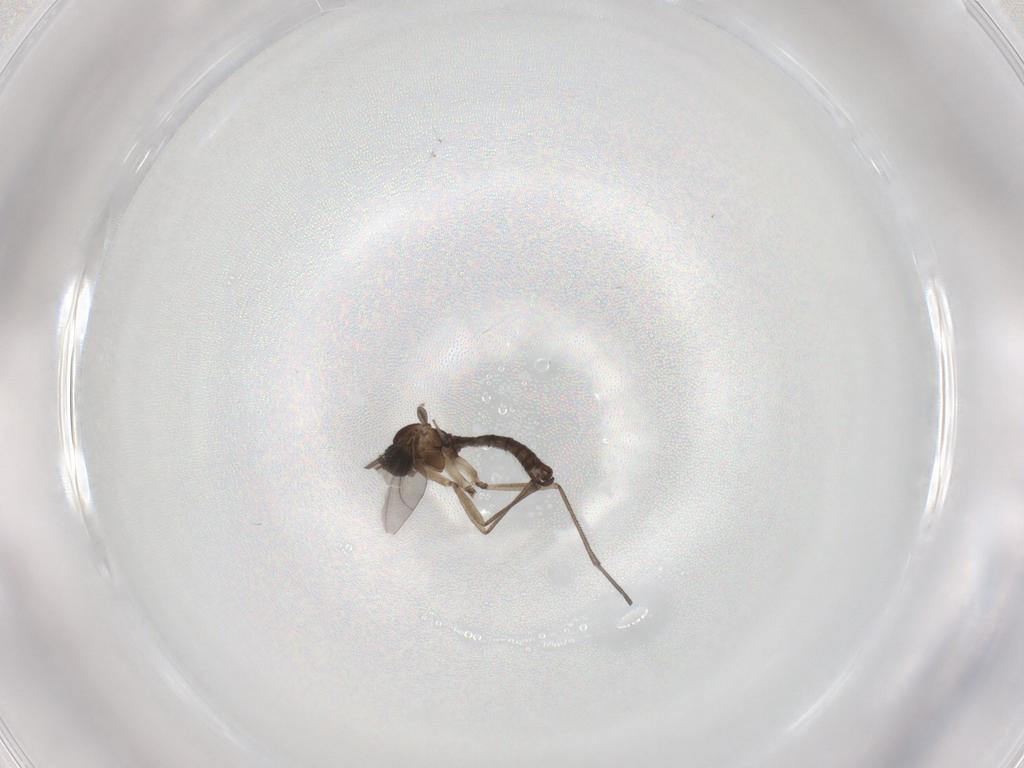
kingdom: Animalia
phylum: Arthropoda
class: Insecta
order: Diptera
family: Sciaridae
